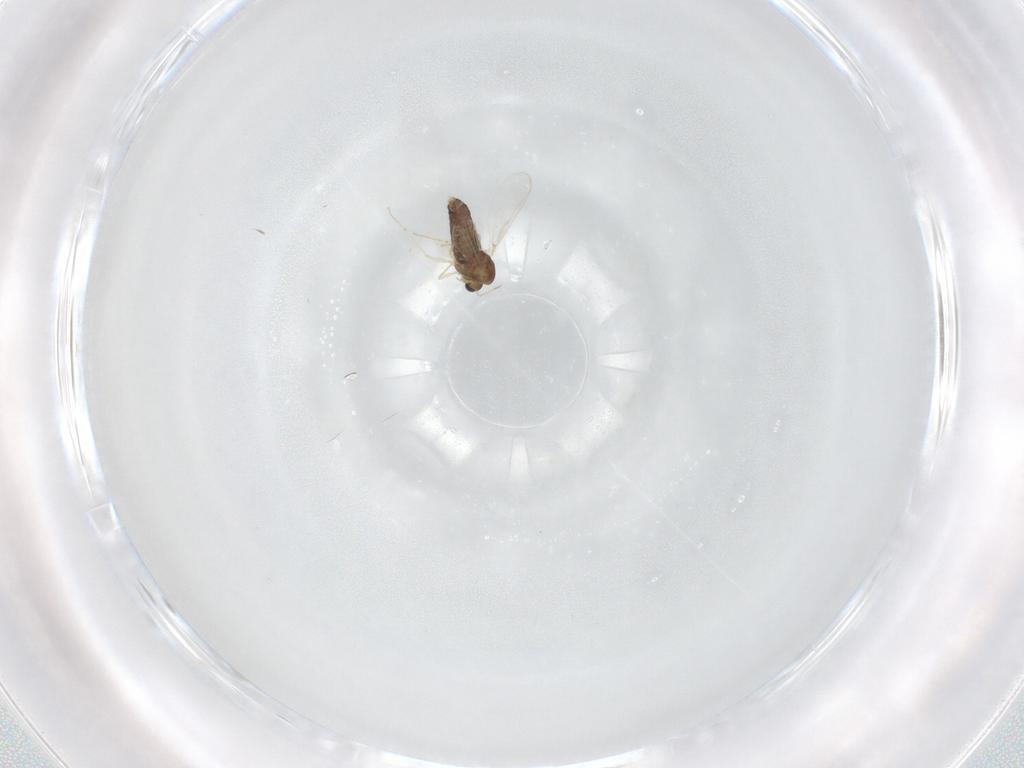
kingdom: Animalia
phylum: Arthropoda
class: Insecta
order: Diptera
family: Chironomidae
